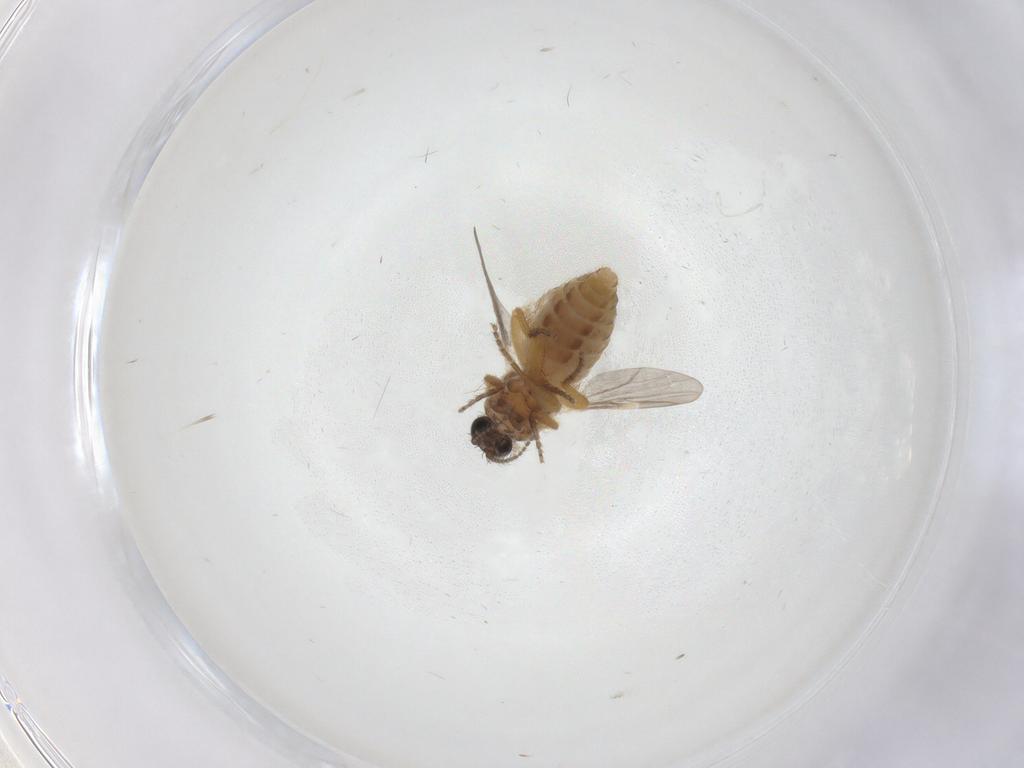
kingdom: Animalia
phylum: Arthropoda
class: Insecta
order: Diptera
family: Ceratopogonidae
